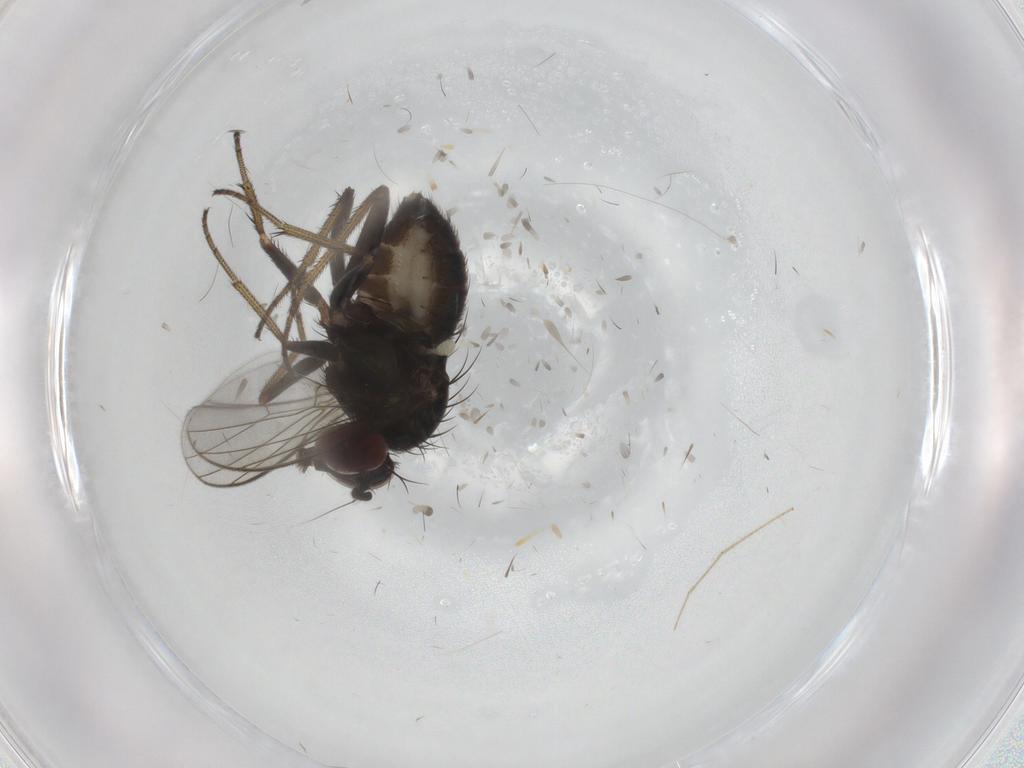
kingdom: Animalia
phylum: Arthropoda
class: Insecta
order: Diptera
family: Dolichopodidae
